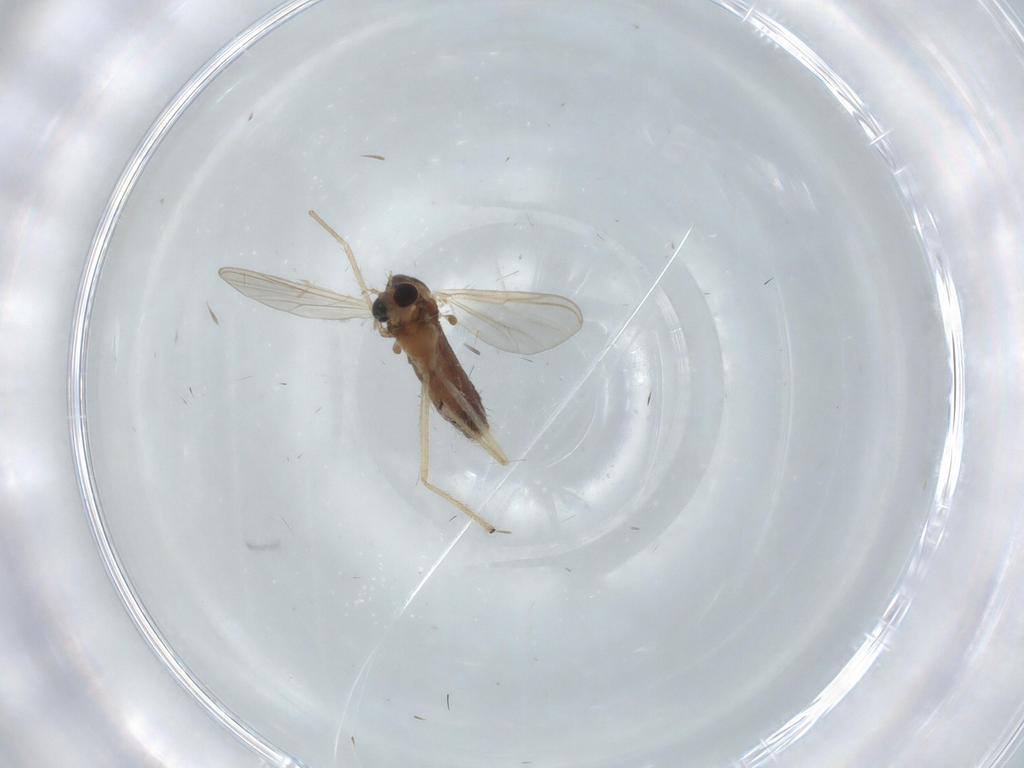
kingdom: Animalia
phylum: Arthropoda
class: Insecta
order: Diptera
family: Chironomidae
